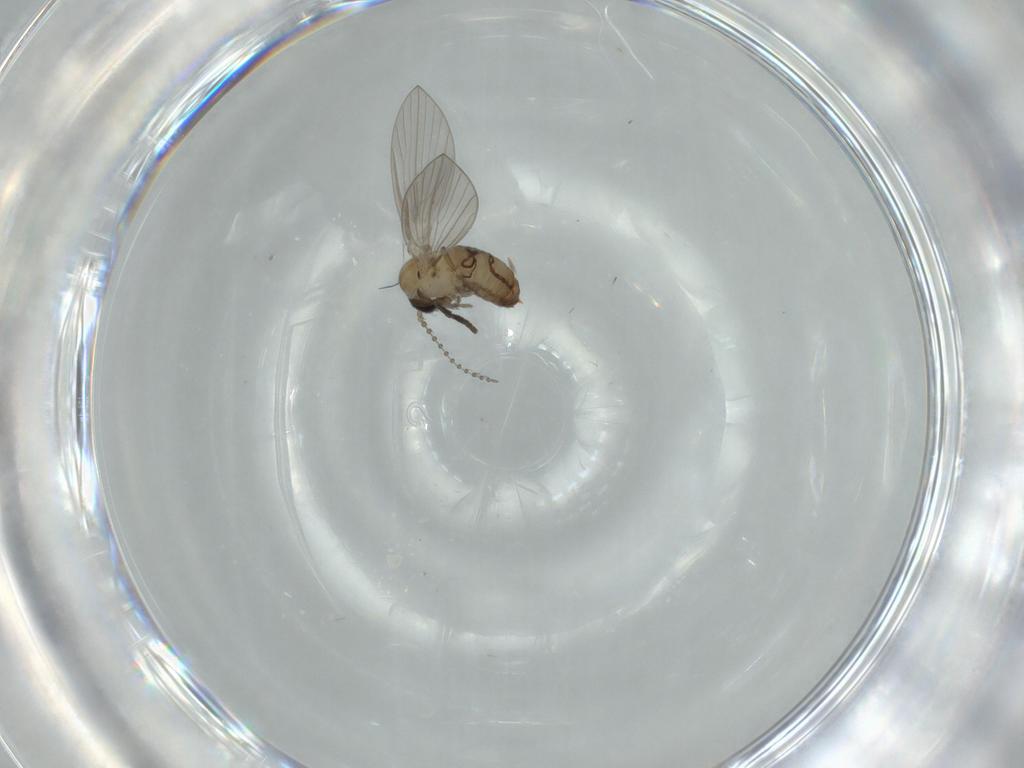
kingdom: Animalia
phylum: Arthropoda
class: Insecta
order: Diptera
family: Psychodidae
